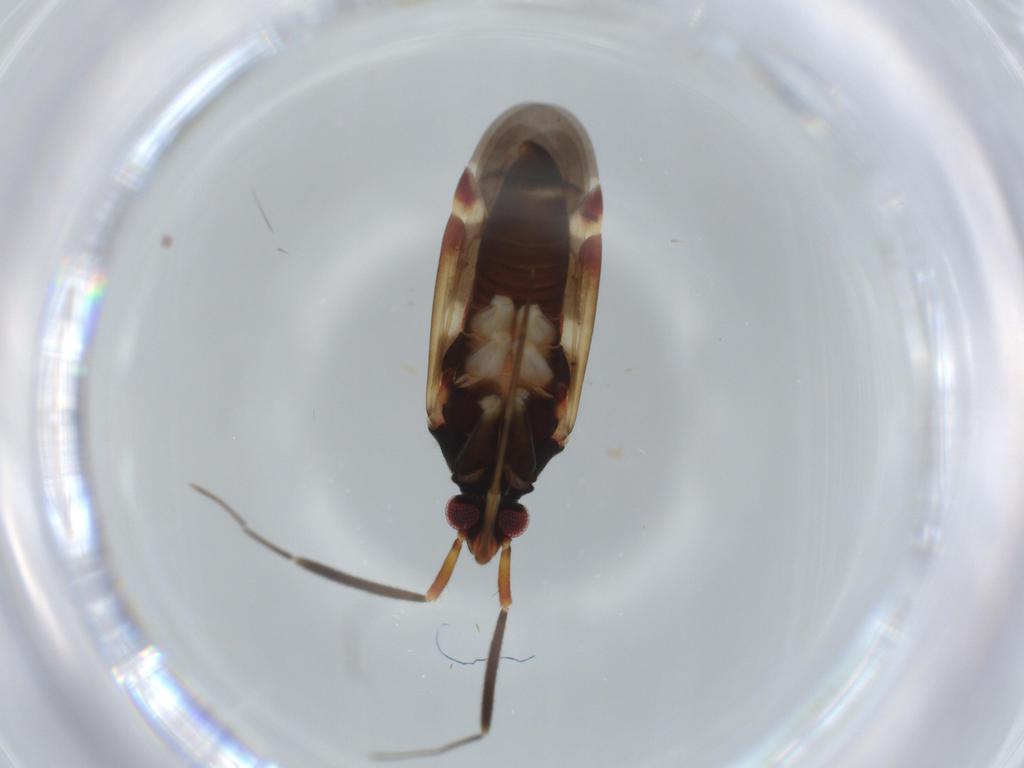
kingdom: Animalia
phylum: Arthropoda
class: Insecta
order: Hemiptera
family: Miridae
